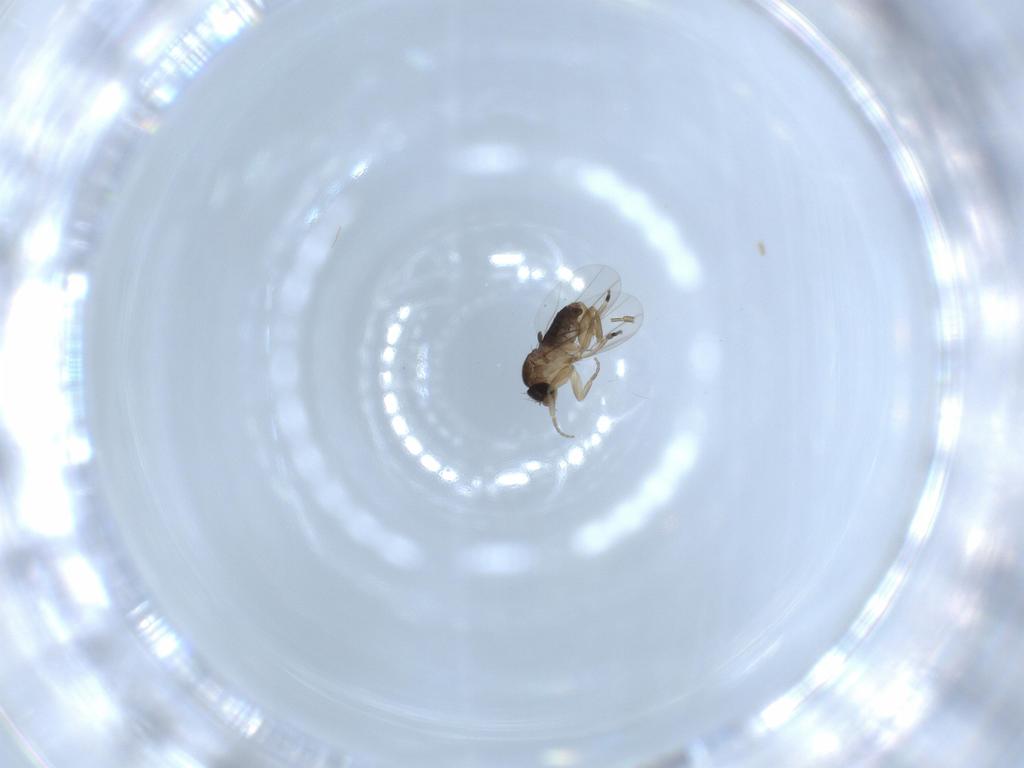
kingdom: Animalia
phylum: Arthropoda
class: Insecta
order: Diptera
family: Phoridae
